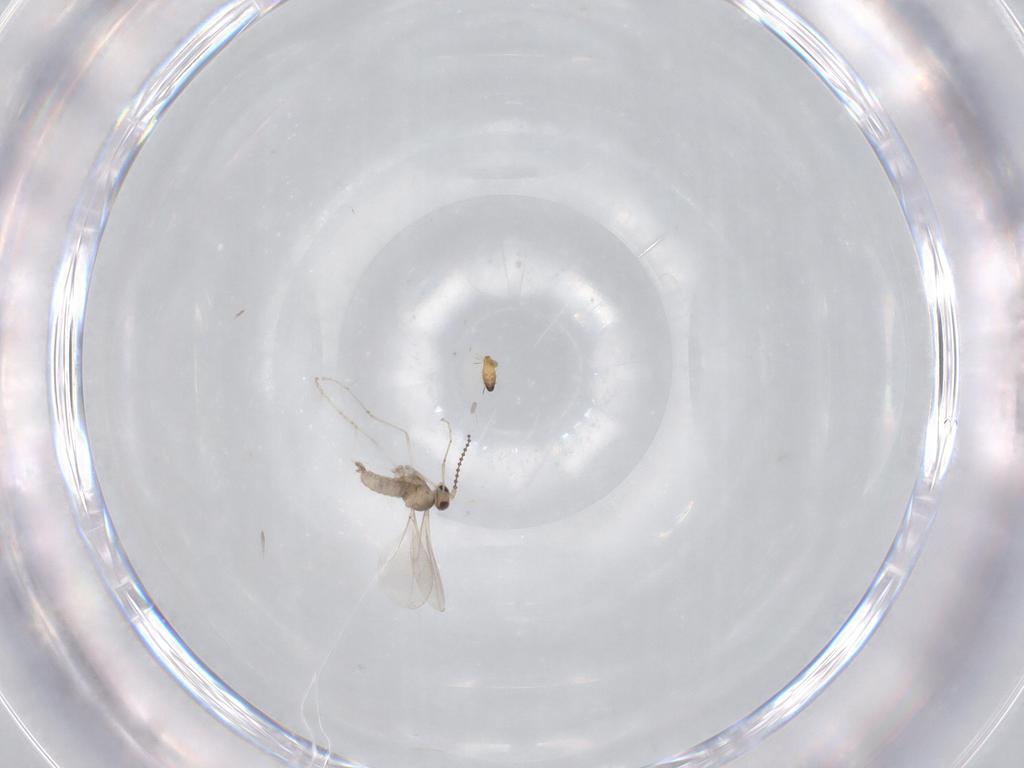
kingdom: Animalia
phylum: Arthropoda
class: Insecta
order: Diptera
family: Cecidomyiidae
